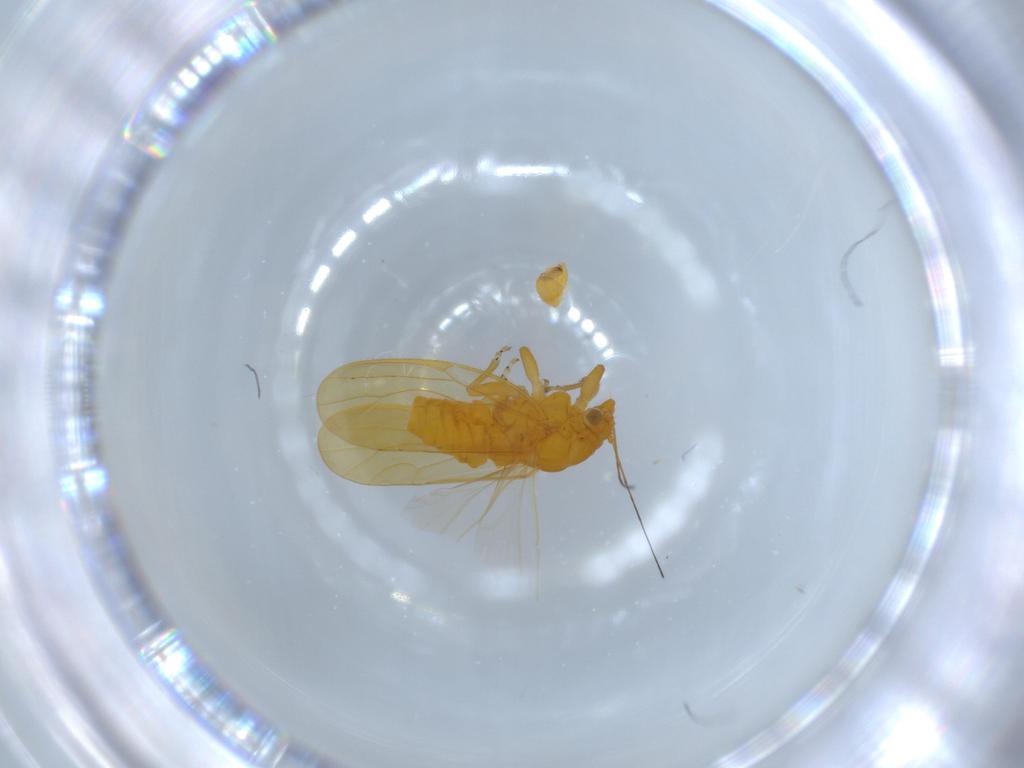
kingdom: Animalia
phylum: Arthropoda
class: Insecta
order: Hemiptera
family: Psyllidae
